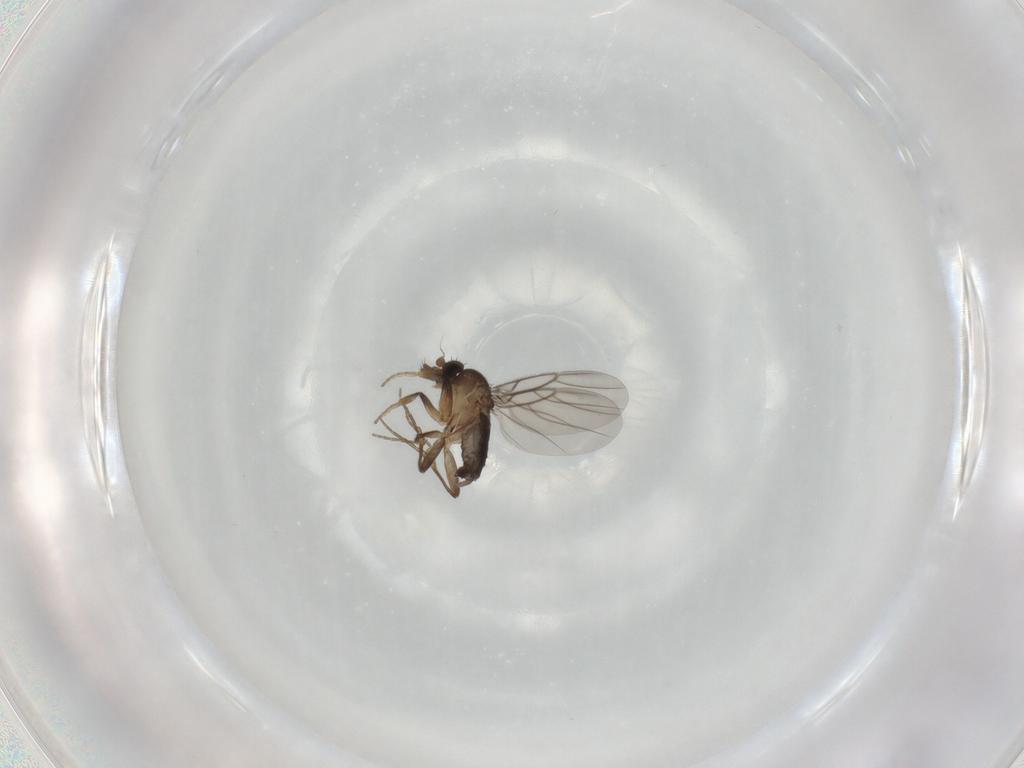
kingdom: Animalia
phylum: Arthropoda
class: Insecta
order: Diptera
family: Phoridae
